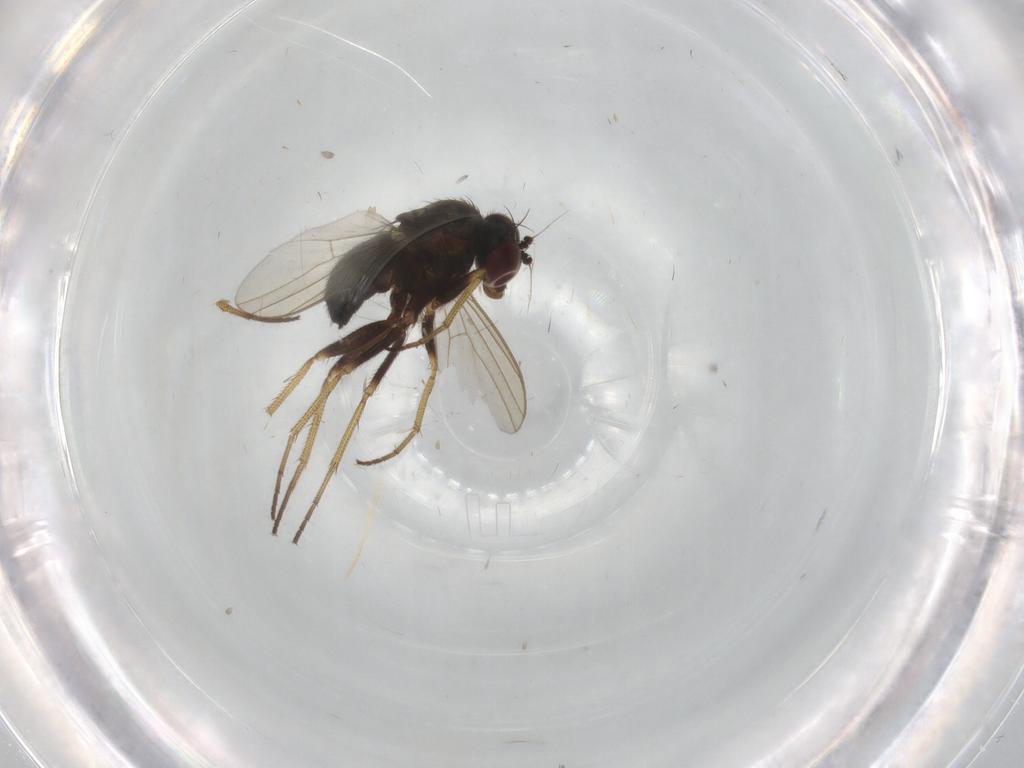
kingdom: Animalia
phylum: Arthropoda
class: Insecta
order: Diptera
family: Dolichopodidae
